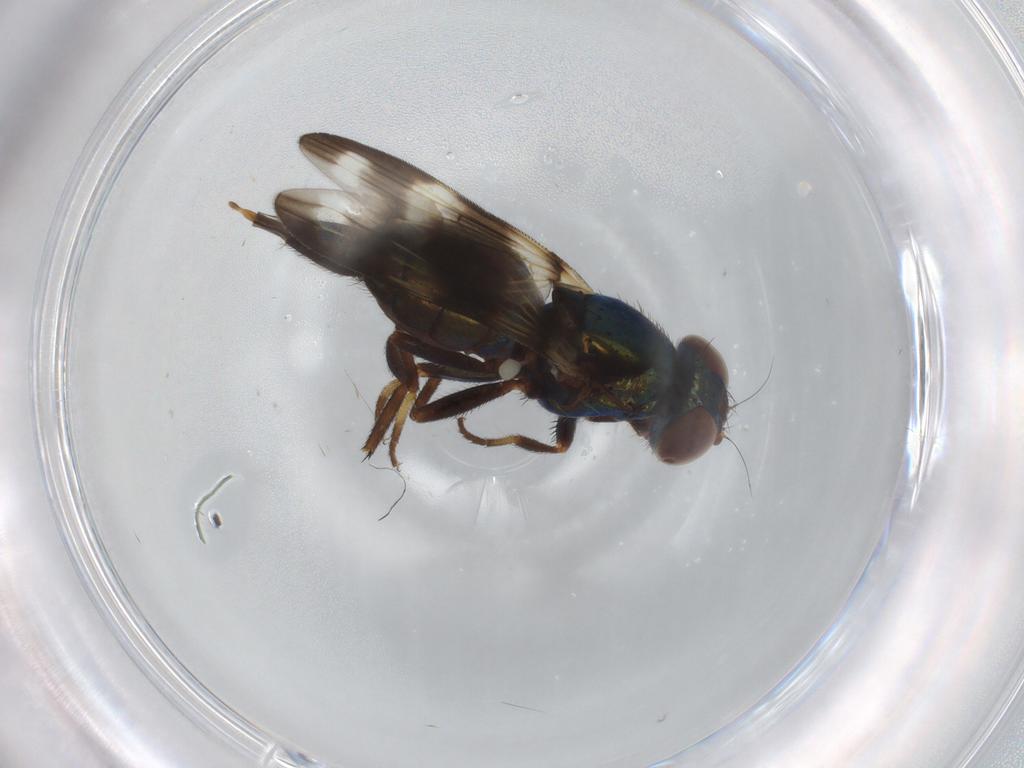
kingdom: Animalia
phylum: Arthropoda
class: Insecta
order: Diptera
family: Ulidiidae
